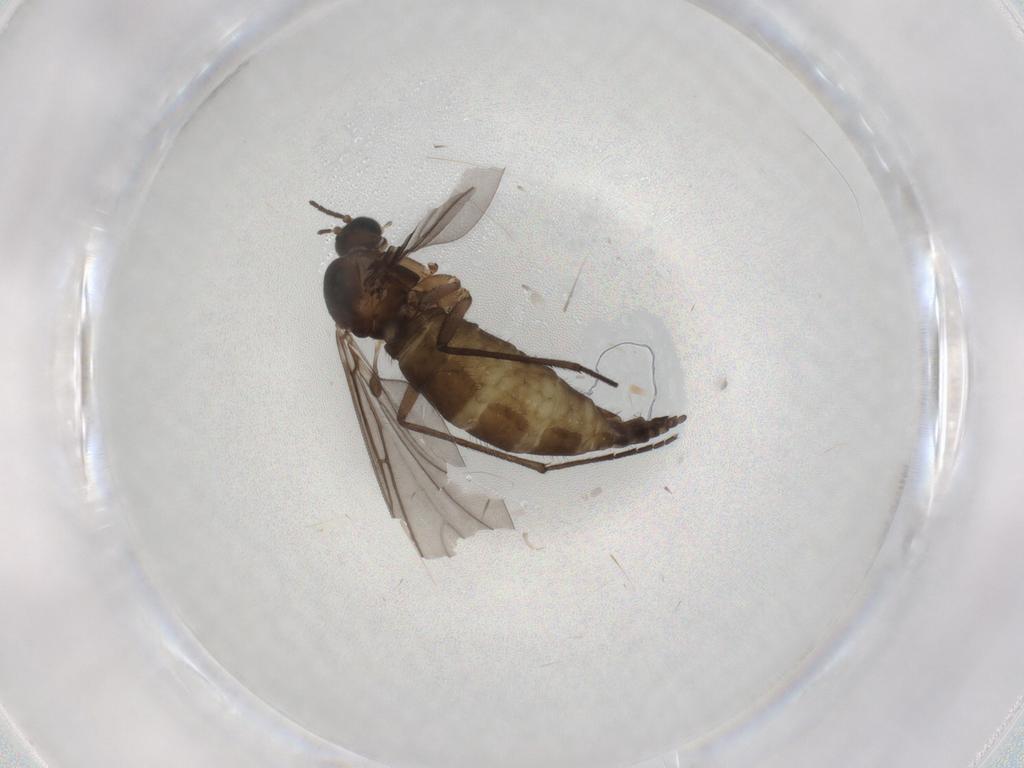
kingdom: Animalia
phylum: Arthropoda
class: Insecta
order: Diptera
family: Sciaridae
